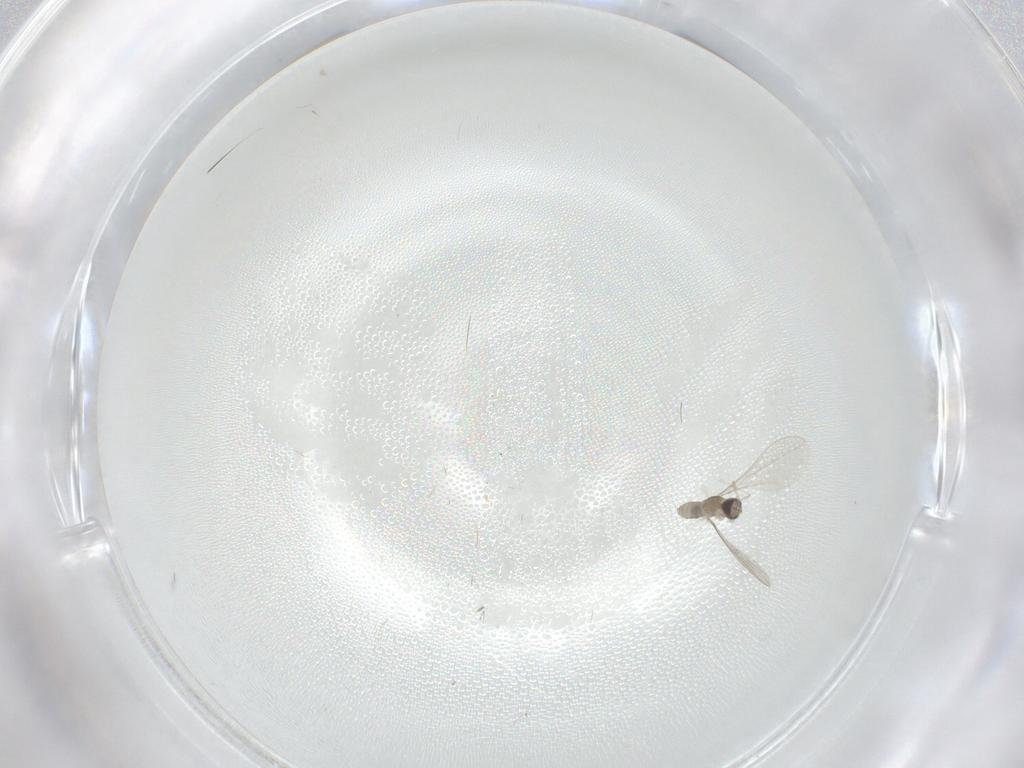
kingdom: Animalia
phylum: Arthropoda
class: Insecta
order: Diptera
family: Cecidomyiidae
